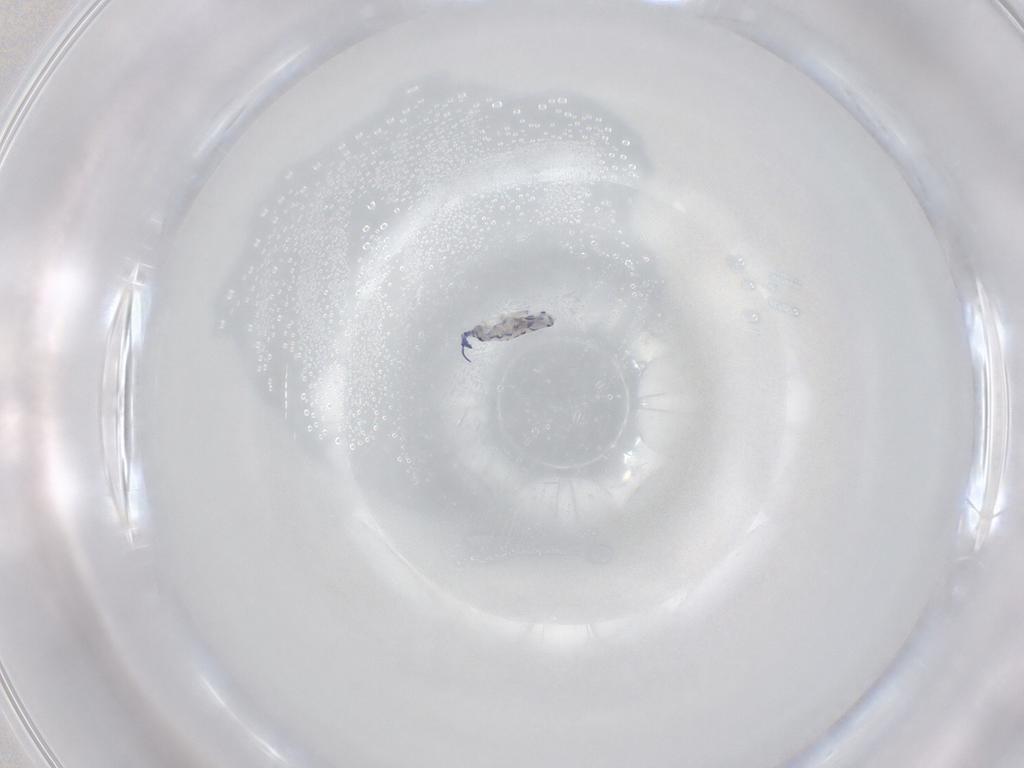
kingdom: Animalia
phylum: Arthropoda
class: Collembola
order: Entomobryomorpha
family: Entomobryidae
